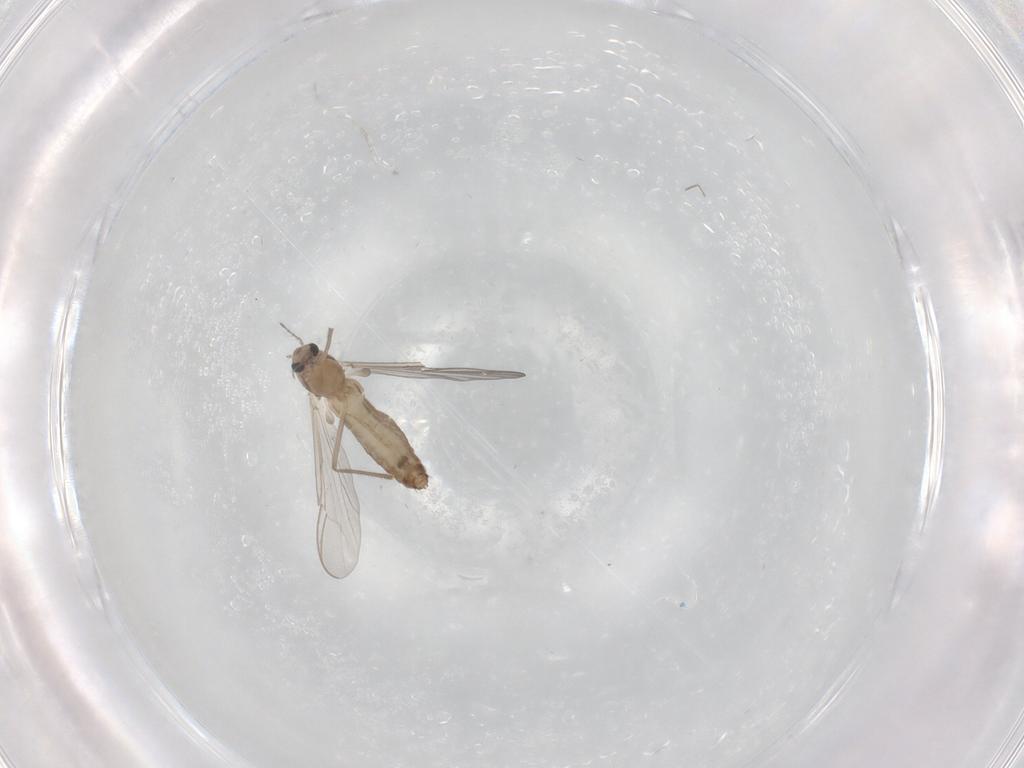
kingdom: Animalia
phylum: Arthropoda
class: Insecta
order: Diptera
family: Chironomidae
